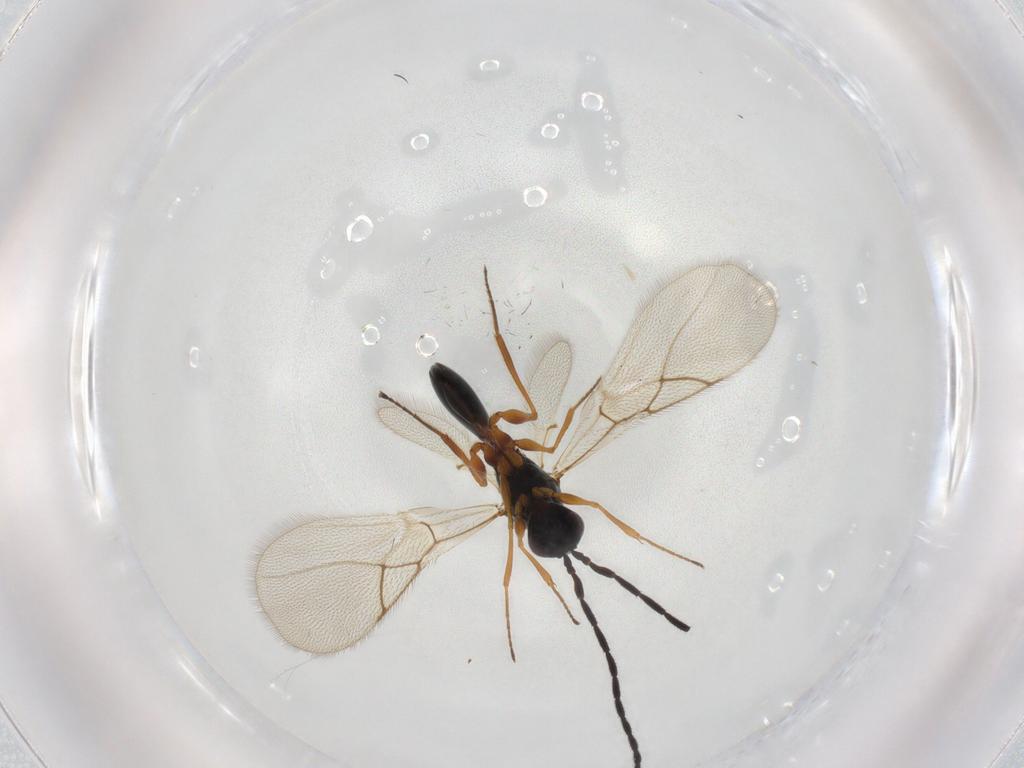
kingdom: Animalia
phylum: Arthropoda
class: Insecta
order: Hymenoptera
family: Figitidae
